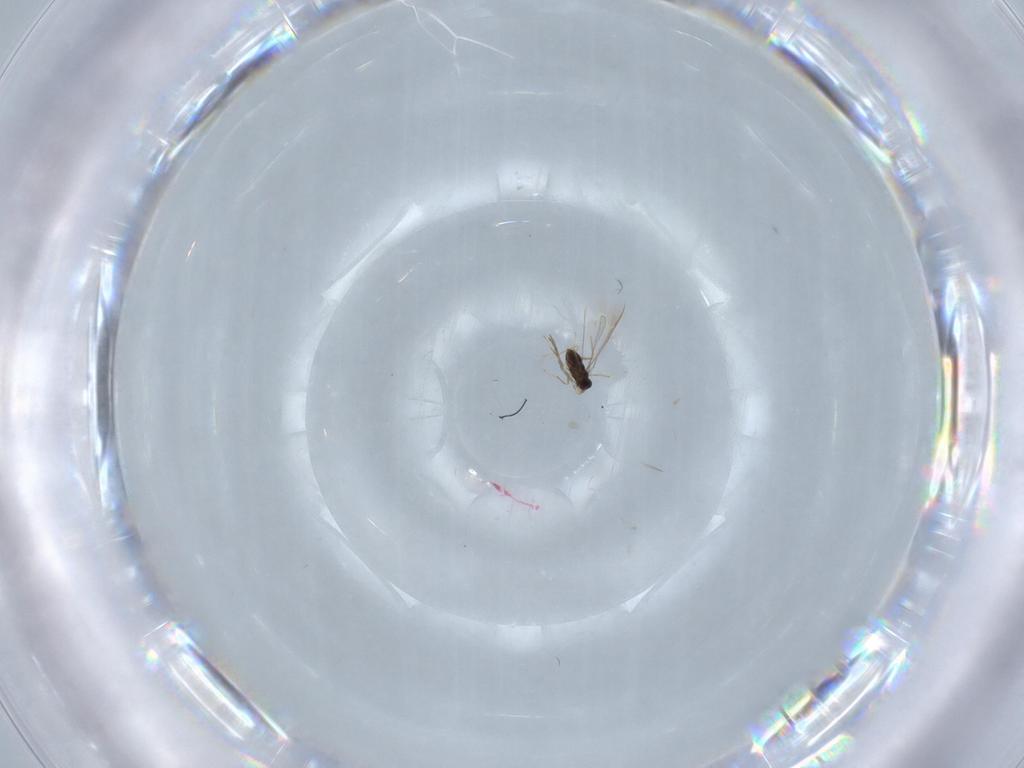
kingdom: Animalia
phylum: Arthropoda
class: Insecta
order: Hymenoptera
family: Mymaridae
